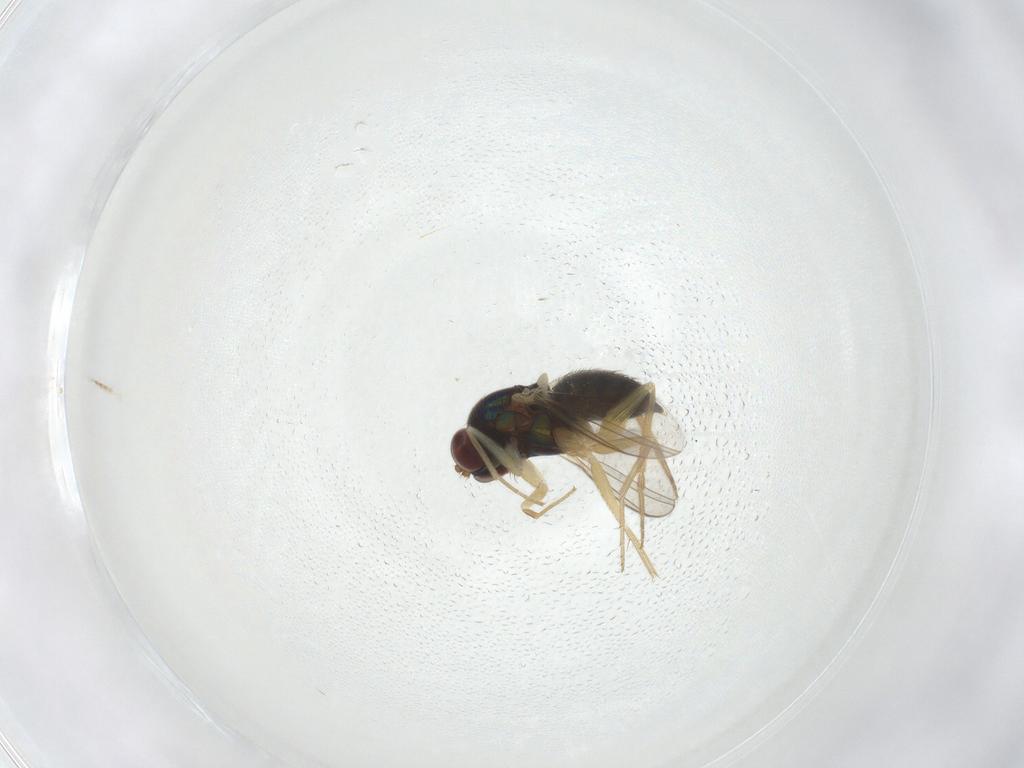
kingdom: Animalia
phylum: Arthropoda
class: Insecta
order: Diptera
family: Dolichopodidae
